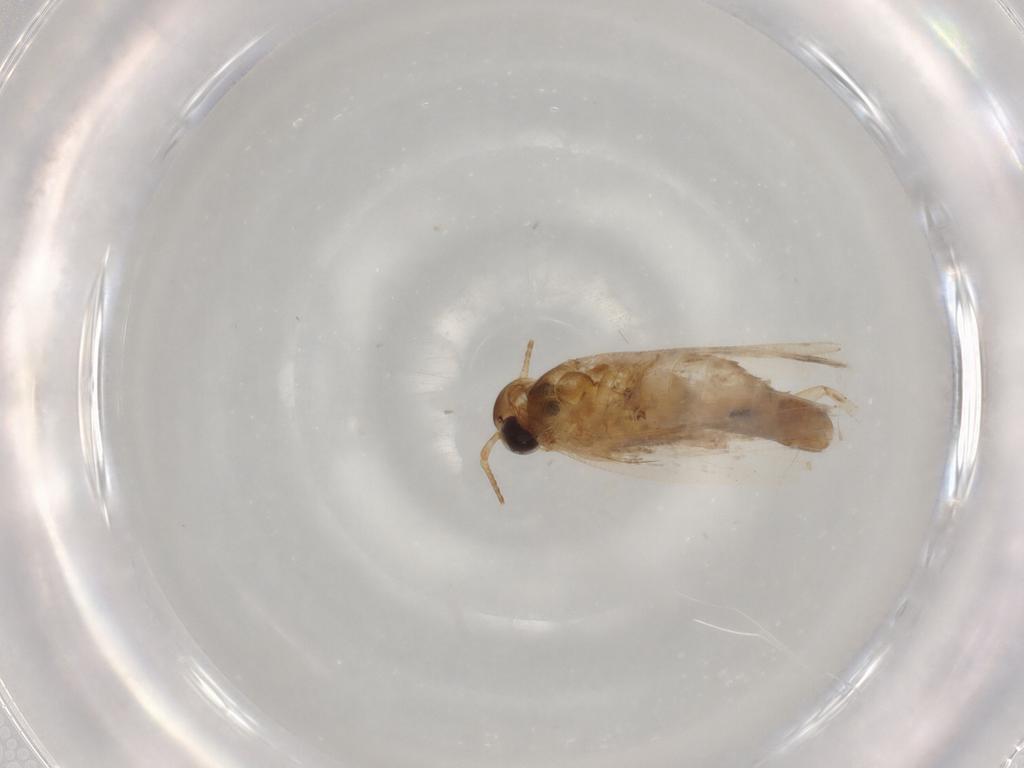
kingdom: Animalia
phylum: Arthropoda
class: Insecta
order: Lepidoptera
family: Gelechiidae
